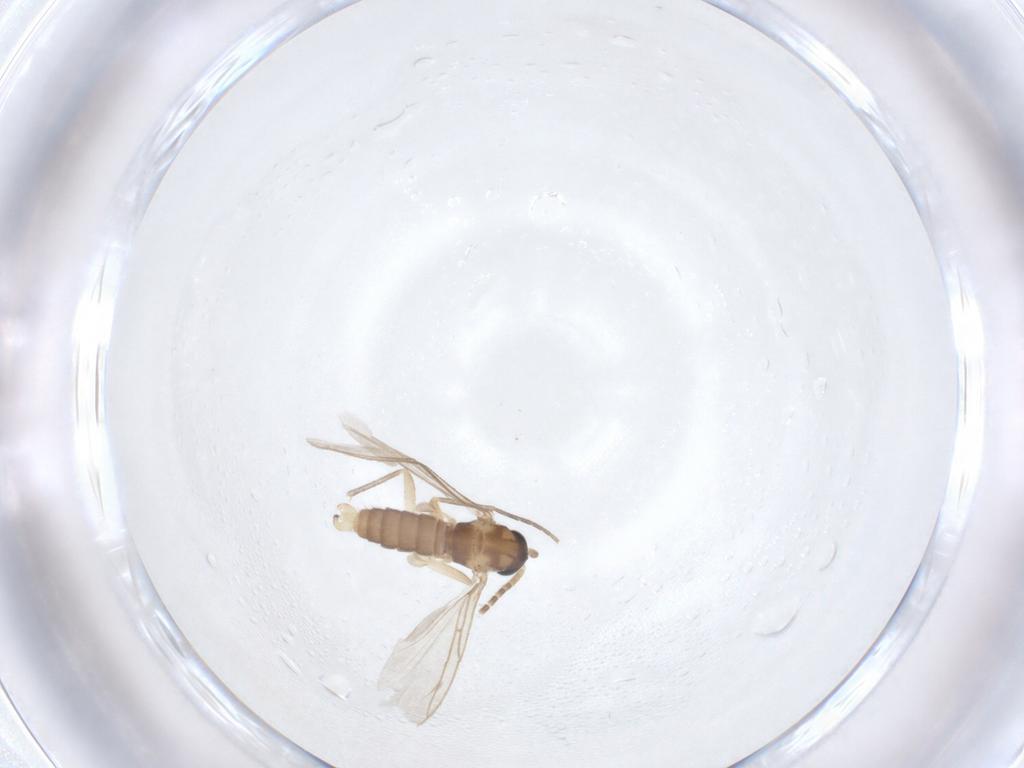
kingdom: Animalia
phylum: Arthropoda
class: Insecta
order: Diptera
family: Sciaridae
